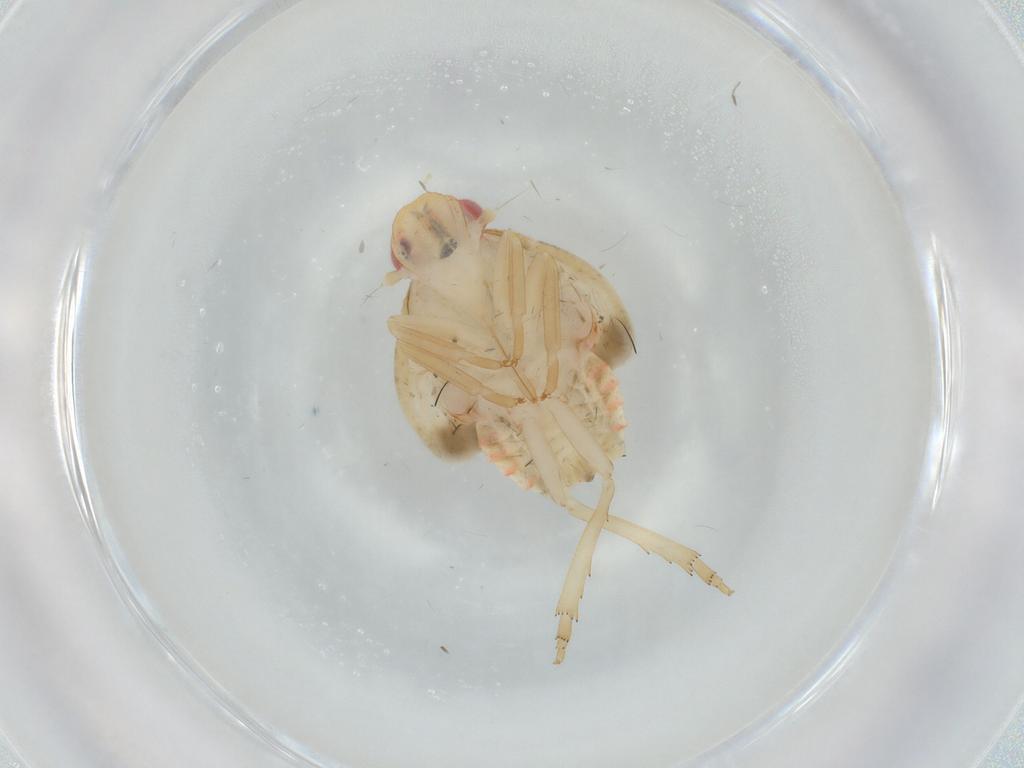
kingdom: Animalia
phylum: Arthropoda
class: Insecta
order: Hemiptera
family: Flatidae
